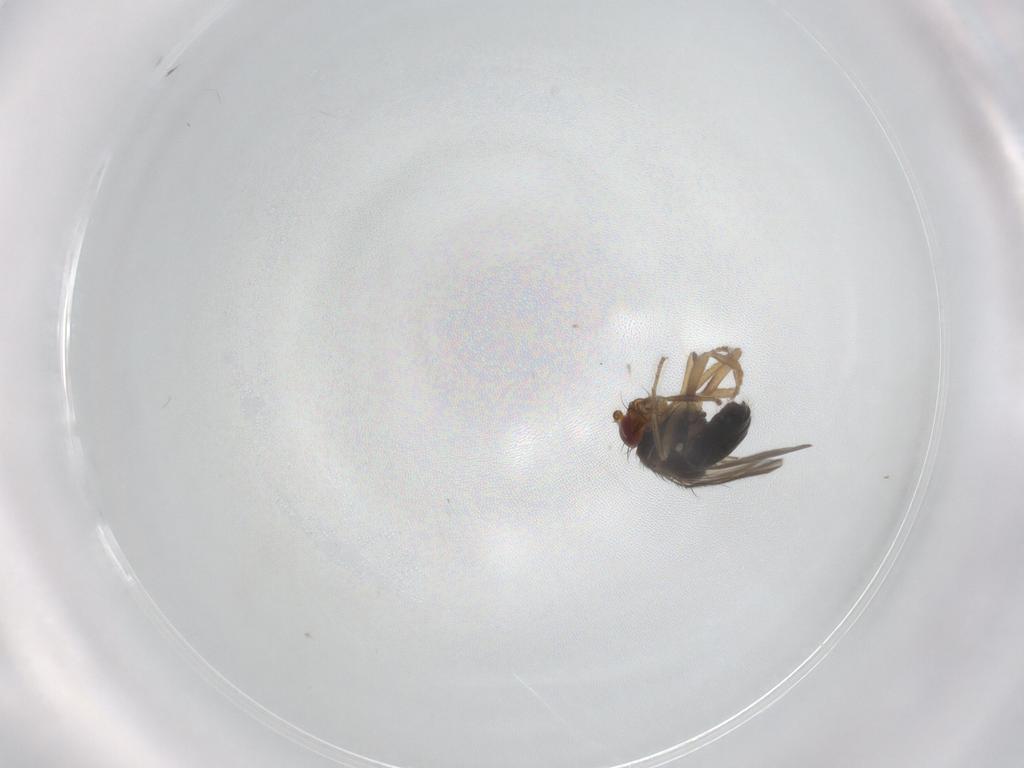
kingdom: Animalia
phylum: Arthropoda
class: Insecta
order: Diptera
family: Sphaeroceridae
